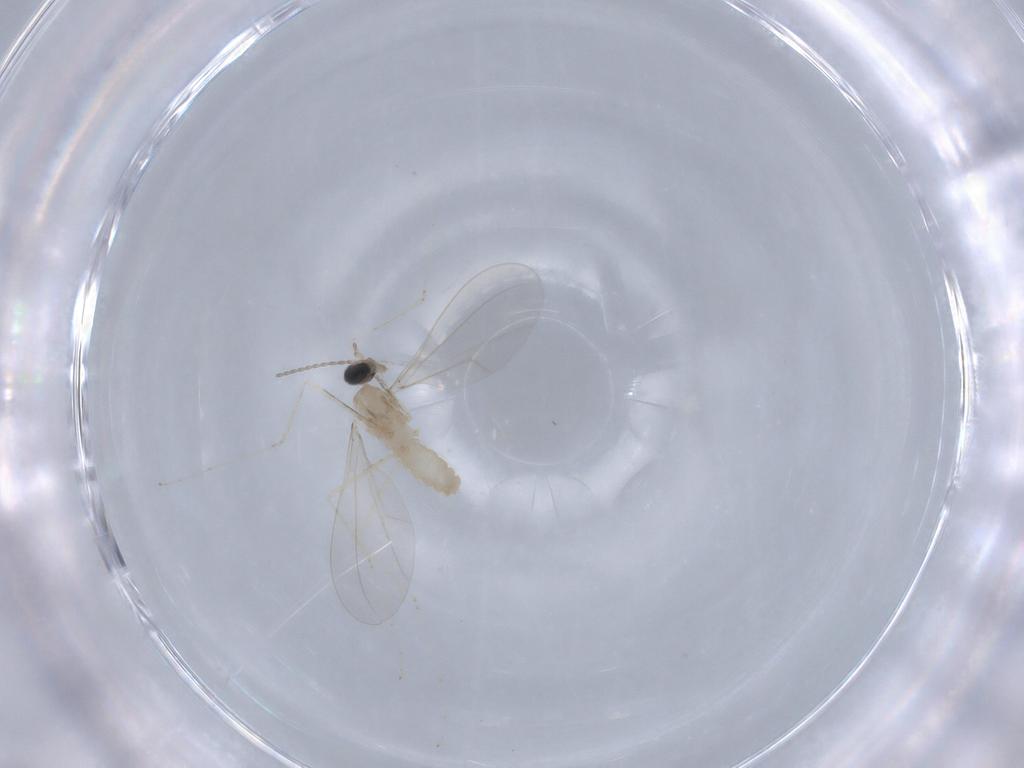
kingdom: Animalia
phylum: Arthropoda
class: Insecta
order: Diptera
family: Cecidomyiidae
